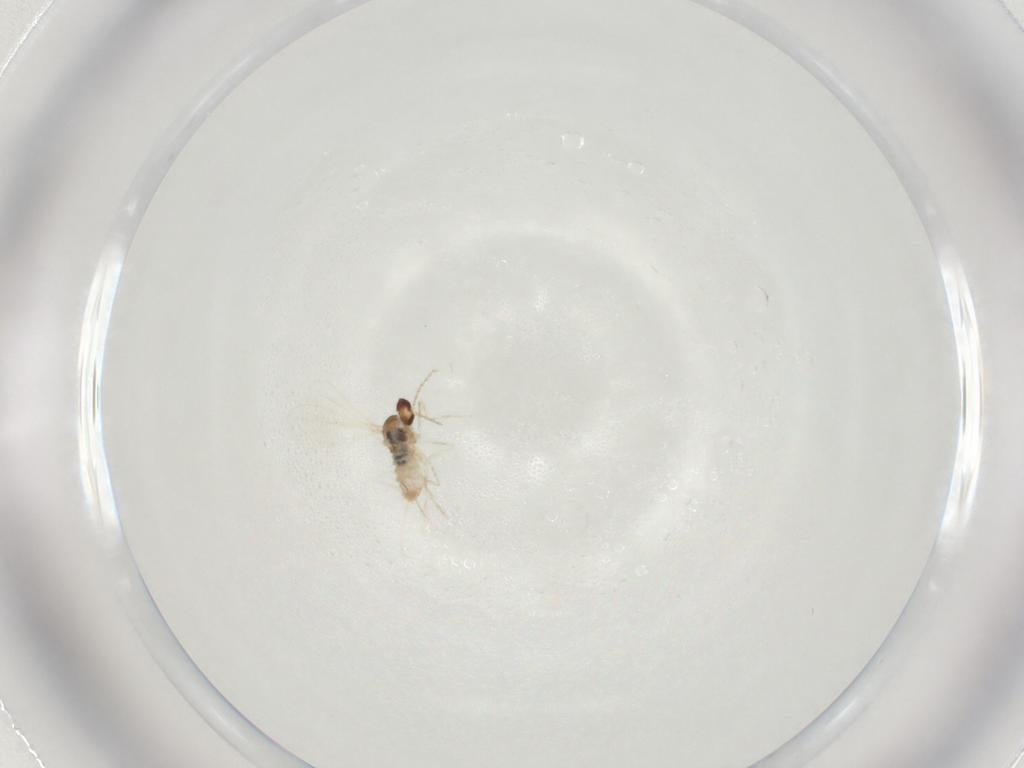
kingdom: Animalia
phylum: Arthropoda
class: Insecta
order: Diptera
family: Cecidomyiidae
